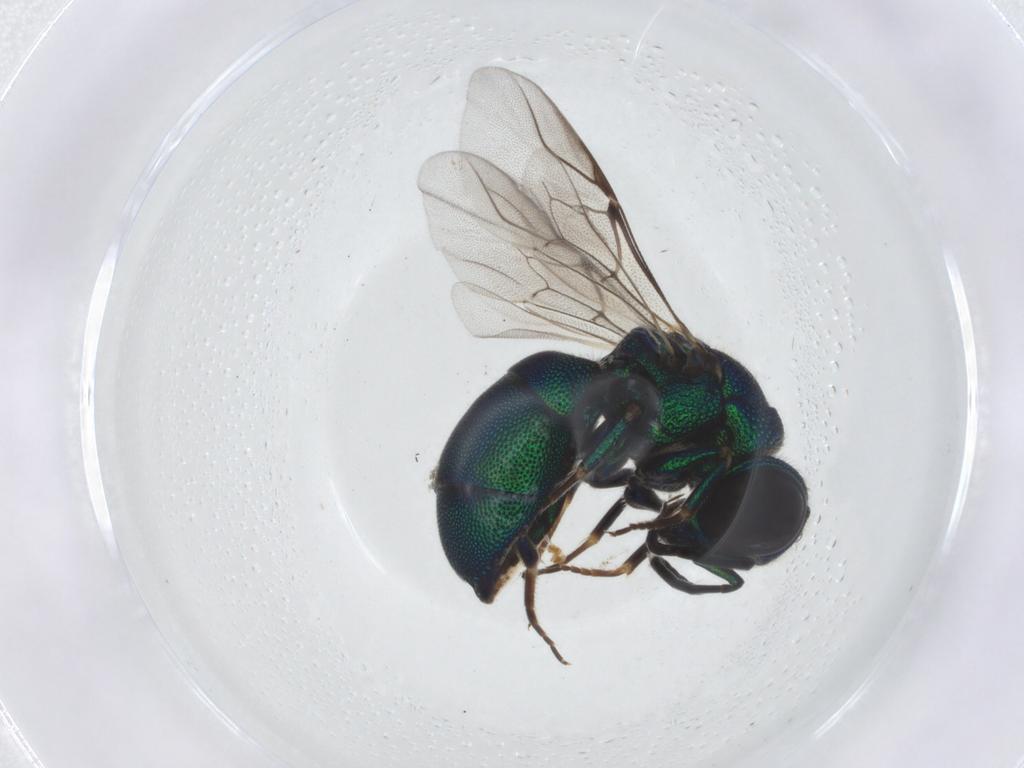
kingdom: Animalia
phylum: Arthropoda
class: Insecta
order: Hymenoptera
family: Chrysididae
